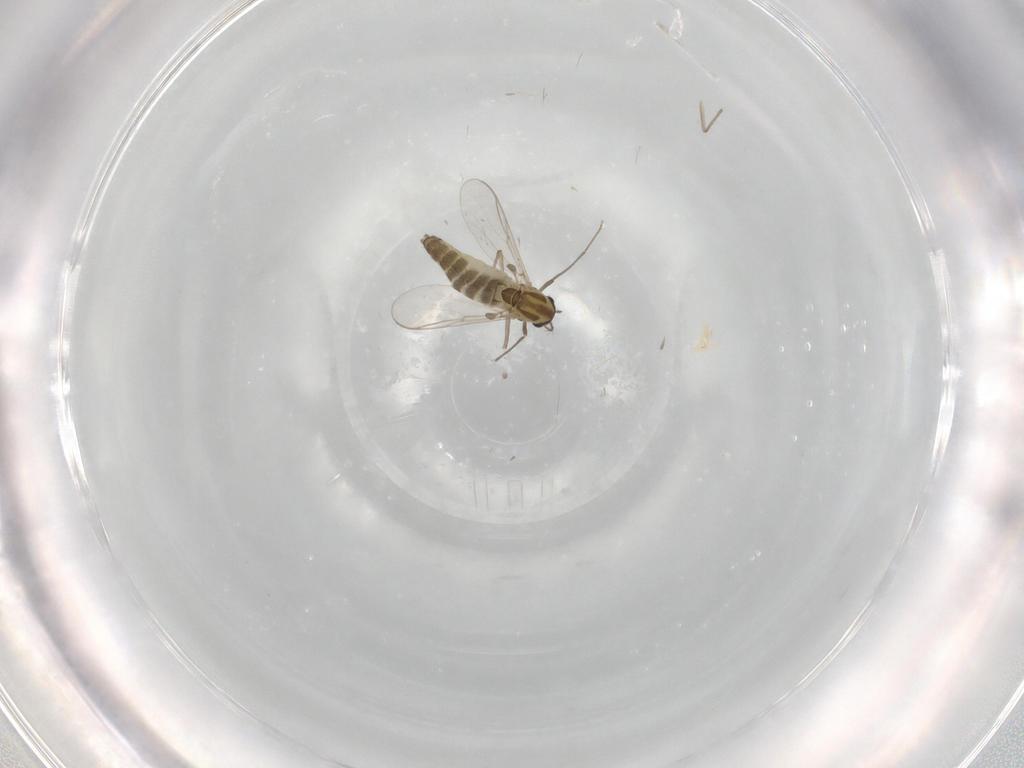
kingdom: Animalia
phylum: Arthropoda
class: Insecta
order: Diptera
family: Chironomidae
